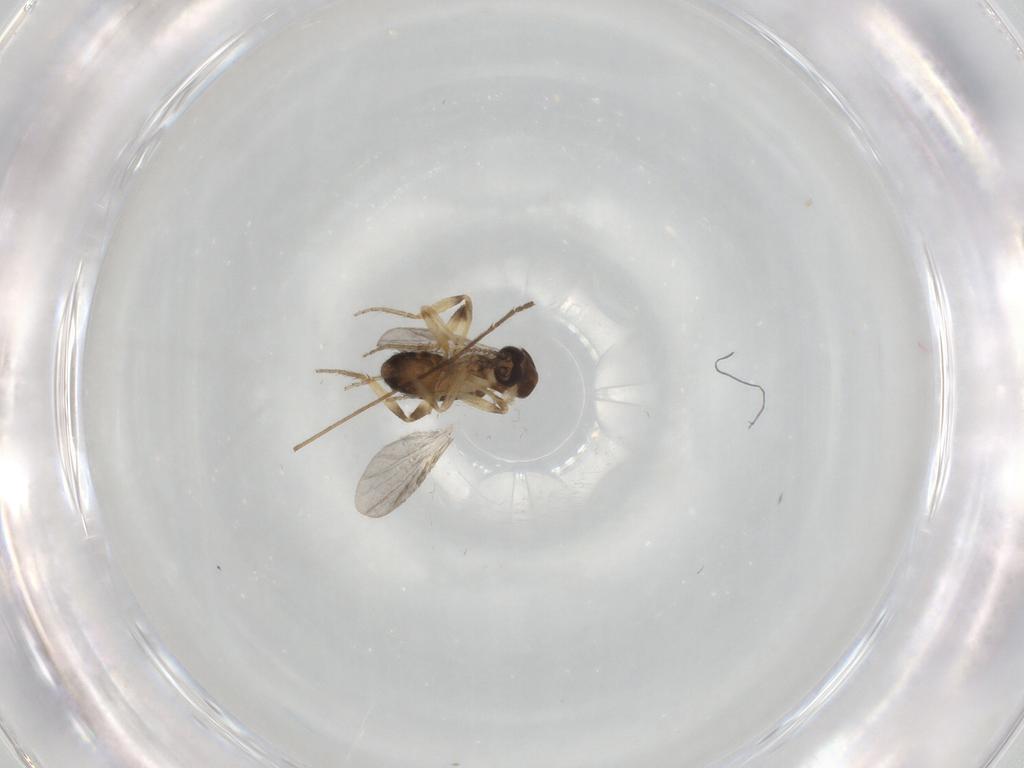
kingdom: Animalia
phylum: Arthropoda
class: Insecta
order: Diptera
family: Ceratopogonidae
